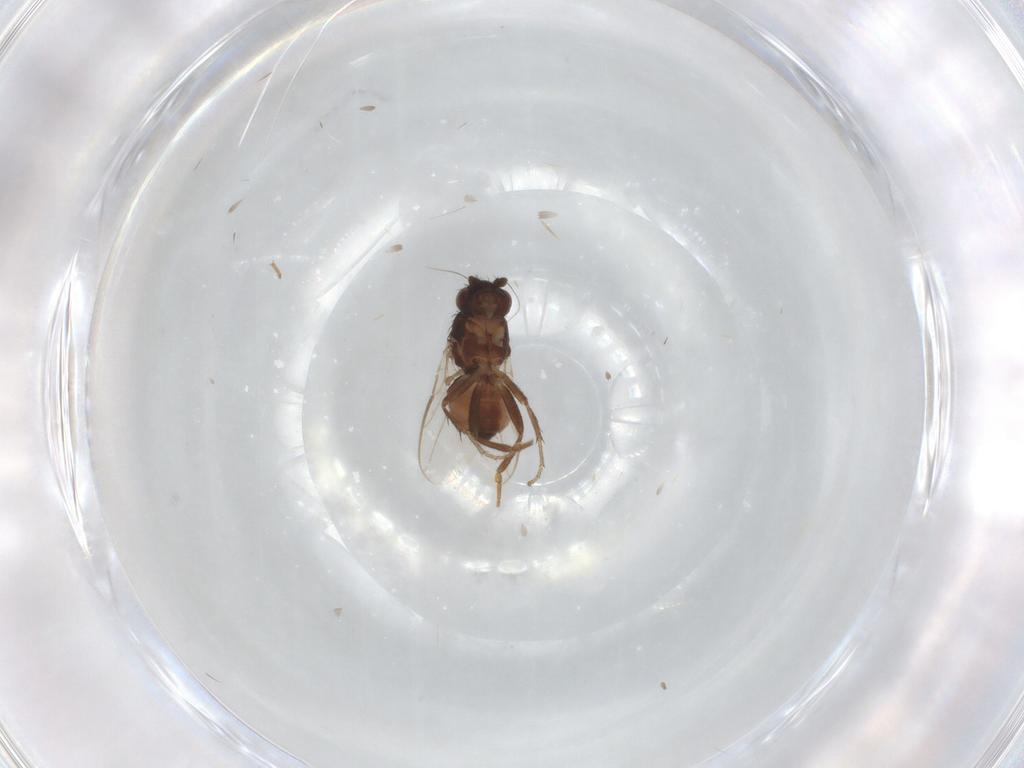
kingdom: Animalia
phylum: Arthropoda
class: Insecta
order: Diptera
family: Sphaeroceridae
